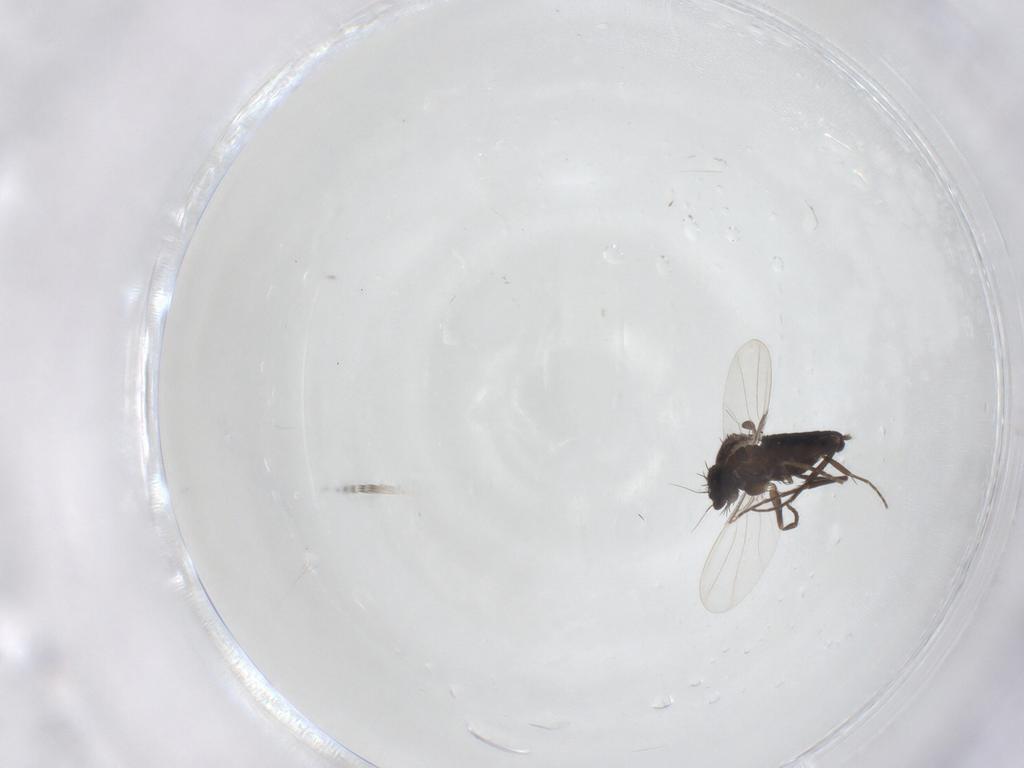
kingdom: Animalia
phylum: Arthropoda
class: Insecta
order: Diptera
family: Phoridae
